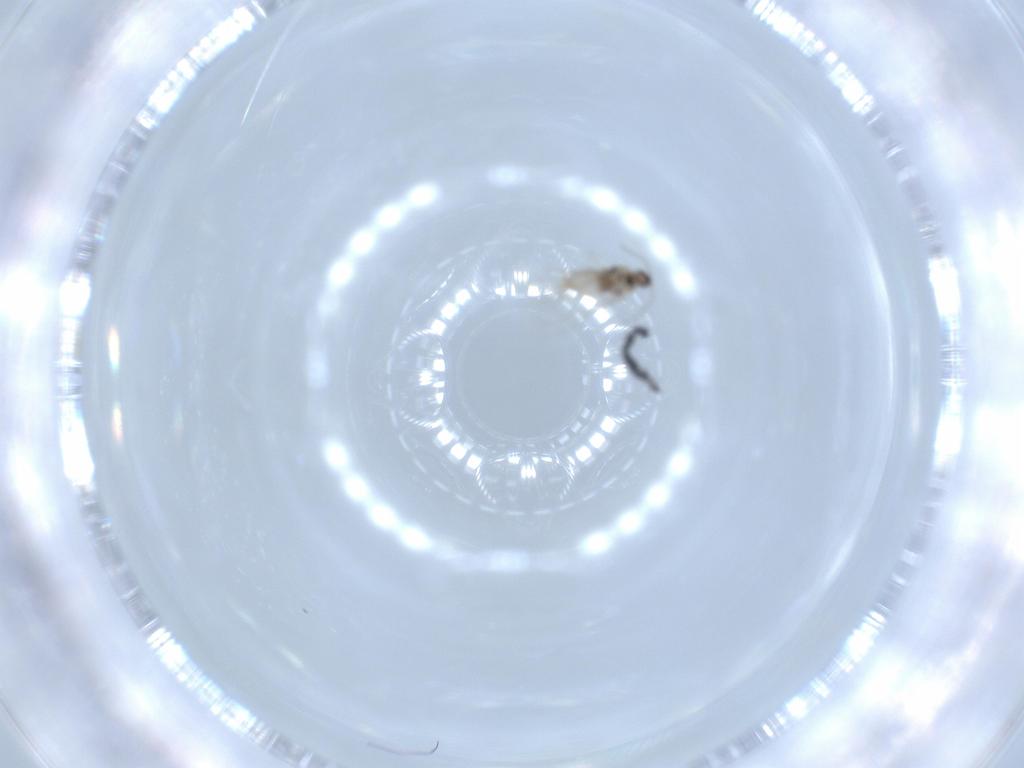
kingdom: Animalia
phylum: Arthropoda
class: Insecta
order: Diptera
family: Cecidomyiidae
